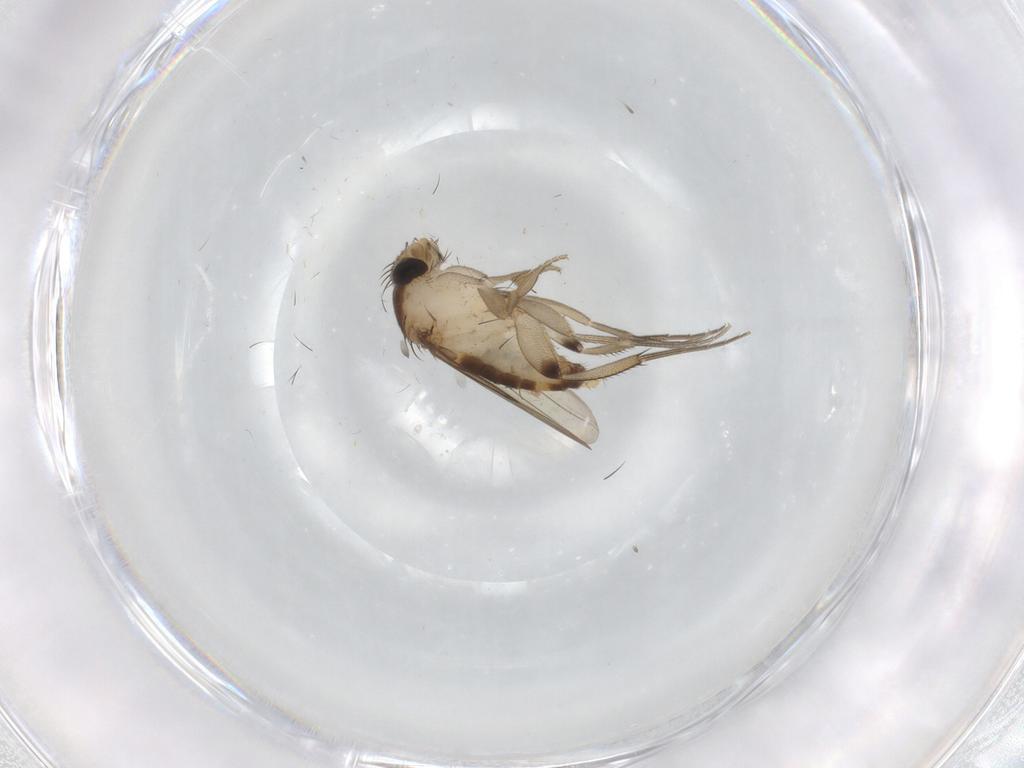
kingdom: Animalia
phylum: Arthropoda
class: Insecta
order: Diptera
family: Phoridae
